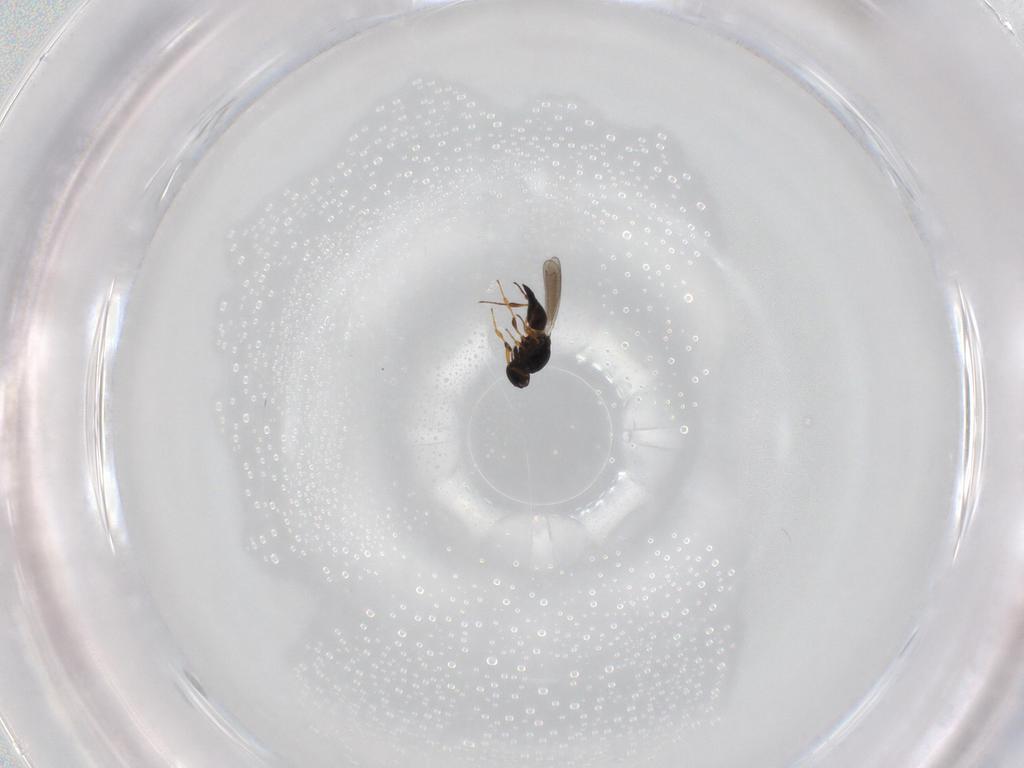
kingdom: Animalia
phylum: Arthropoda
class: Insecta
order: Hymenoptera
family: Platygastridae
